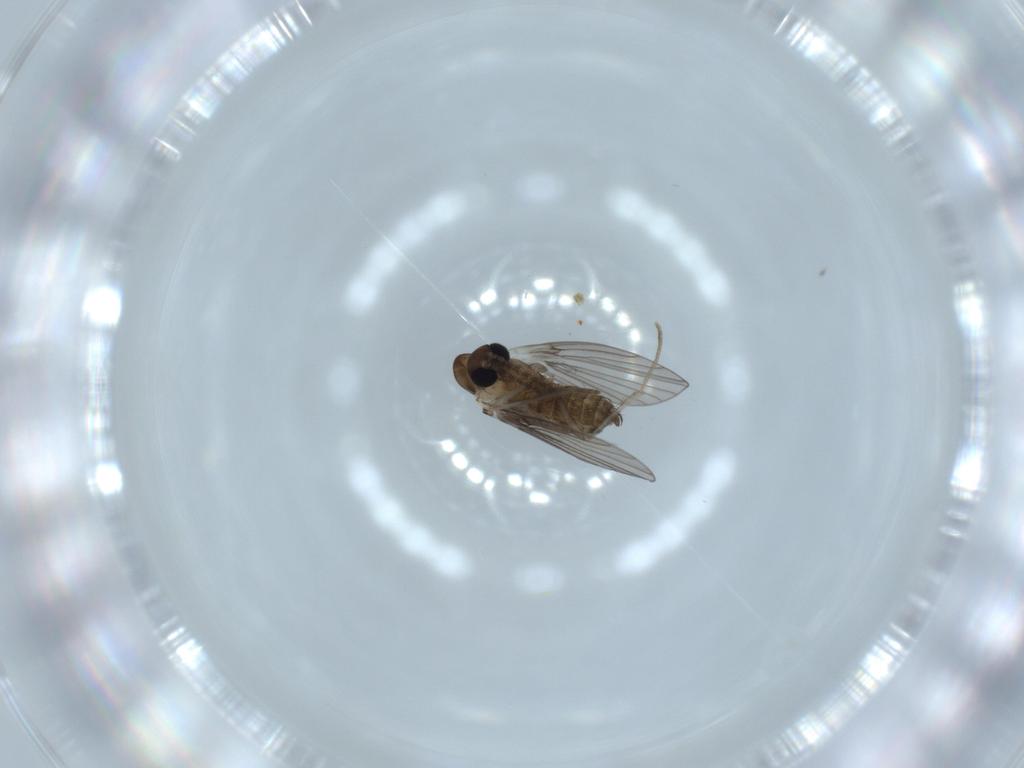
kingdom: Animalia
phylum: Arthropoda
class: Insecta
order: Diptera
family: Psychodidae
